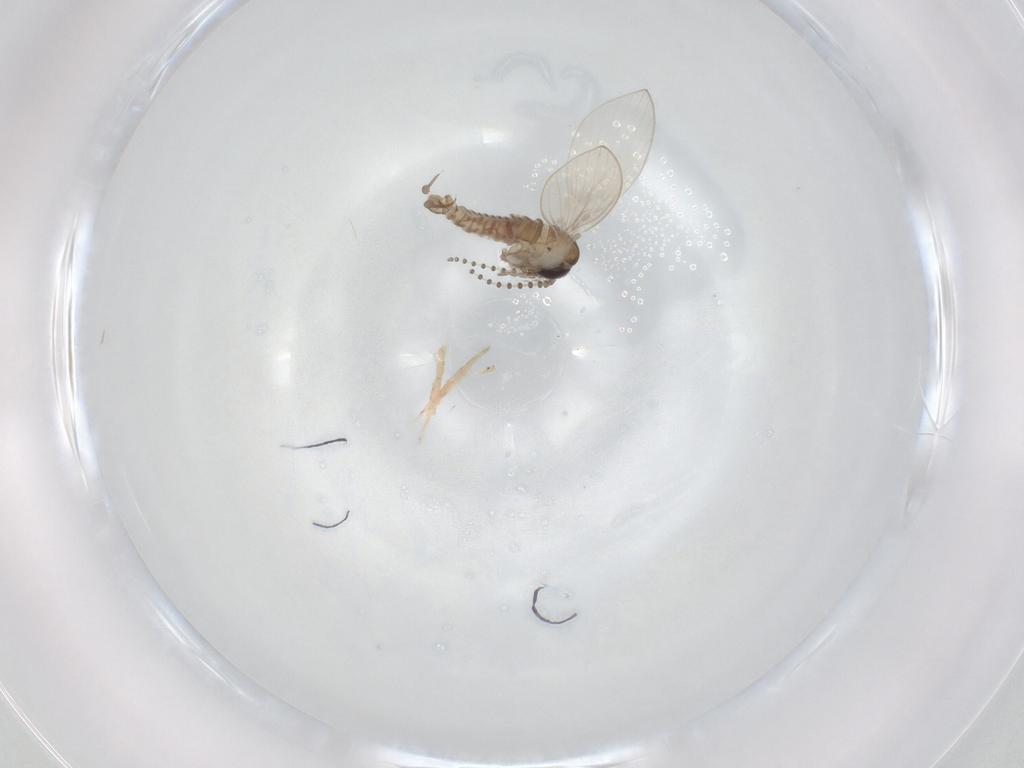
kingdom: Animalia
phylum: Arthropoda
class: Insecta
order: Diptera
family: Psychodidae
